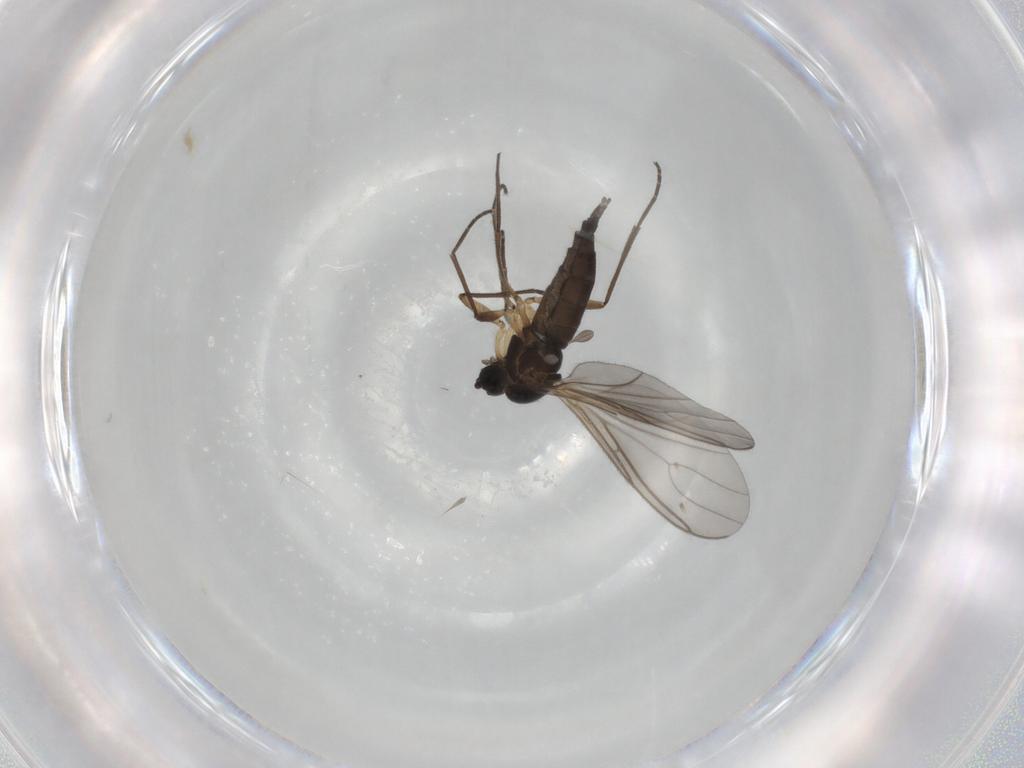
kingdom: Animalia
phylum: Arthropoda
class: Insecta
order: Diptera
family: Sciaridae
